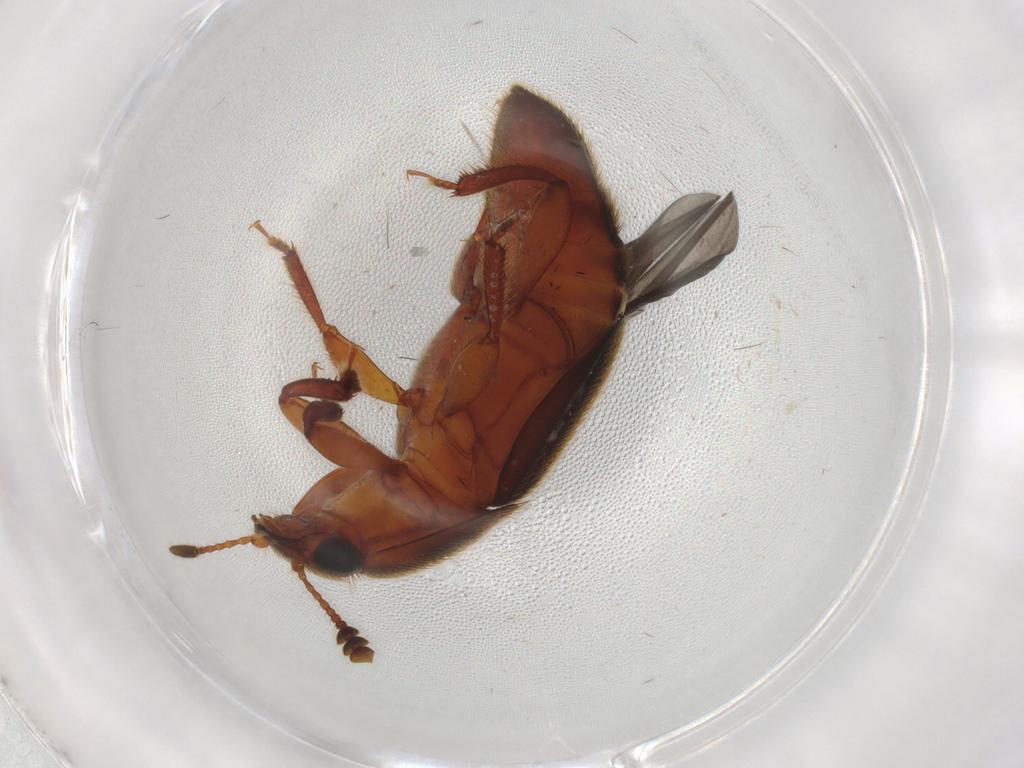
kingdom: Animalia
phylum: Arthropoda
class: Insecta
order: Coleoptera
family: Nitidulidae
